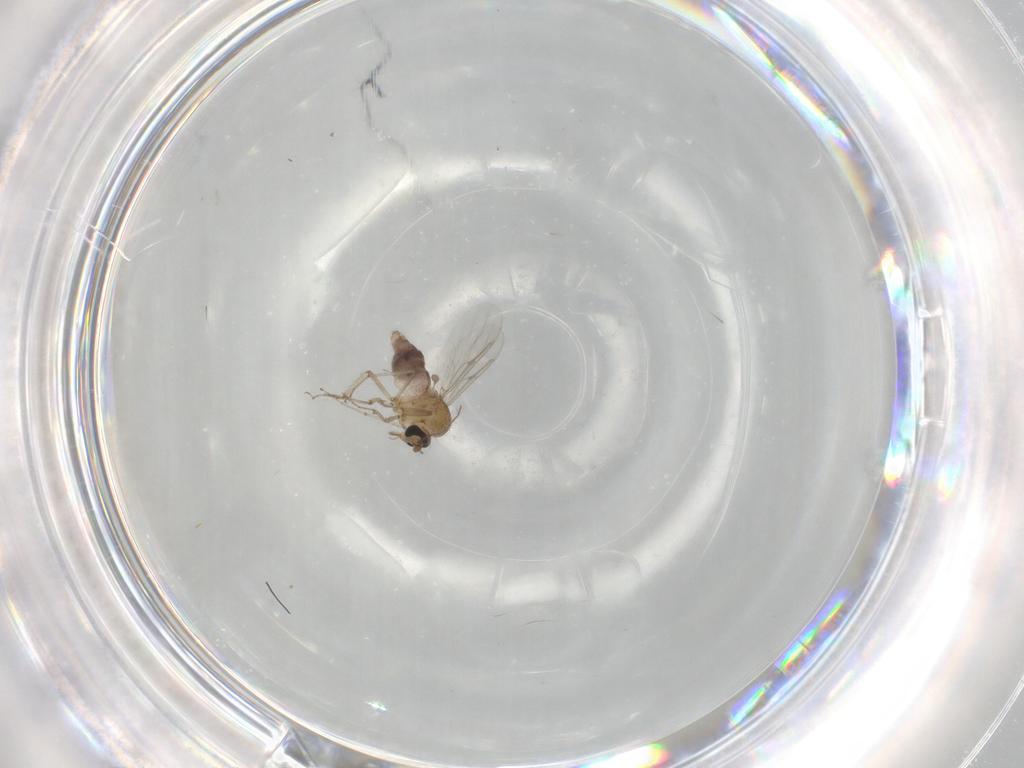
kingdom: Animalia
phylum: Arthropoda
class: Insecta
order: Diptera
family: Cecidomyiidae
